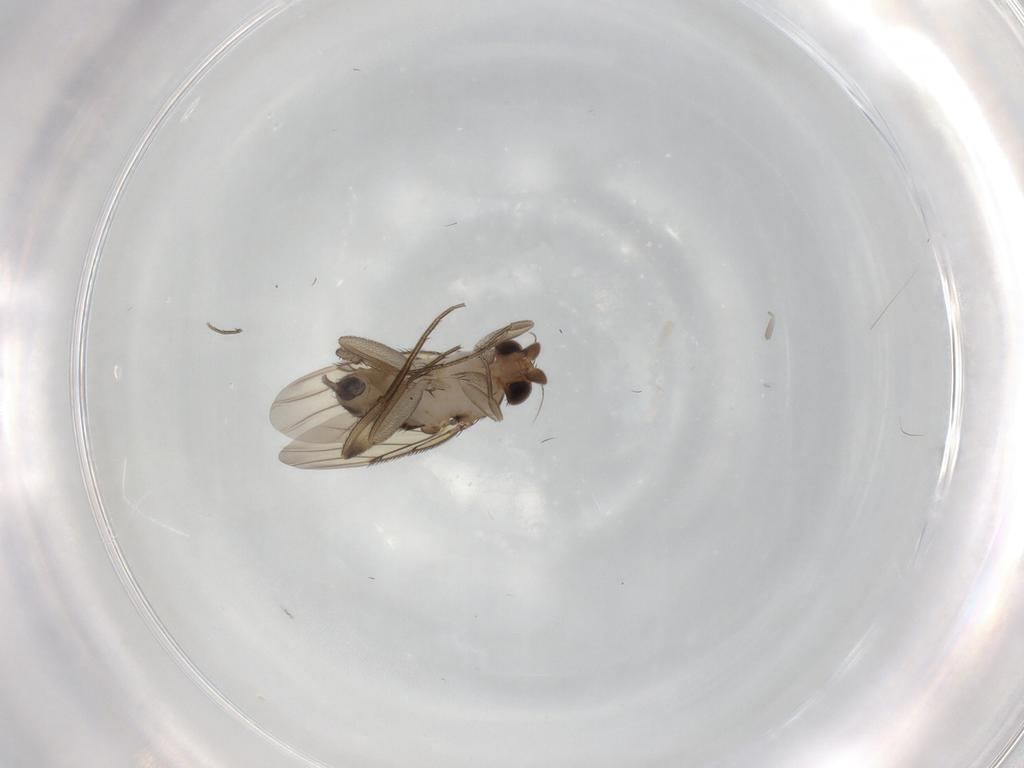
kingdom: Animalia
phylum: Arthropoda
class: Insecta
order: Diptera
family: Phoridae
